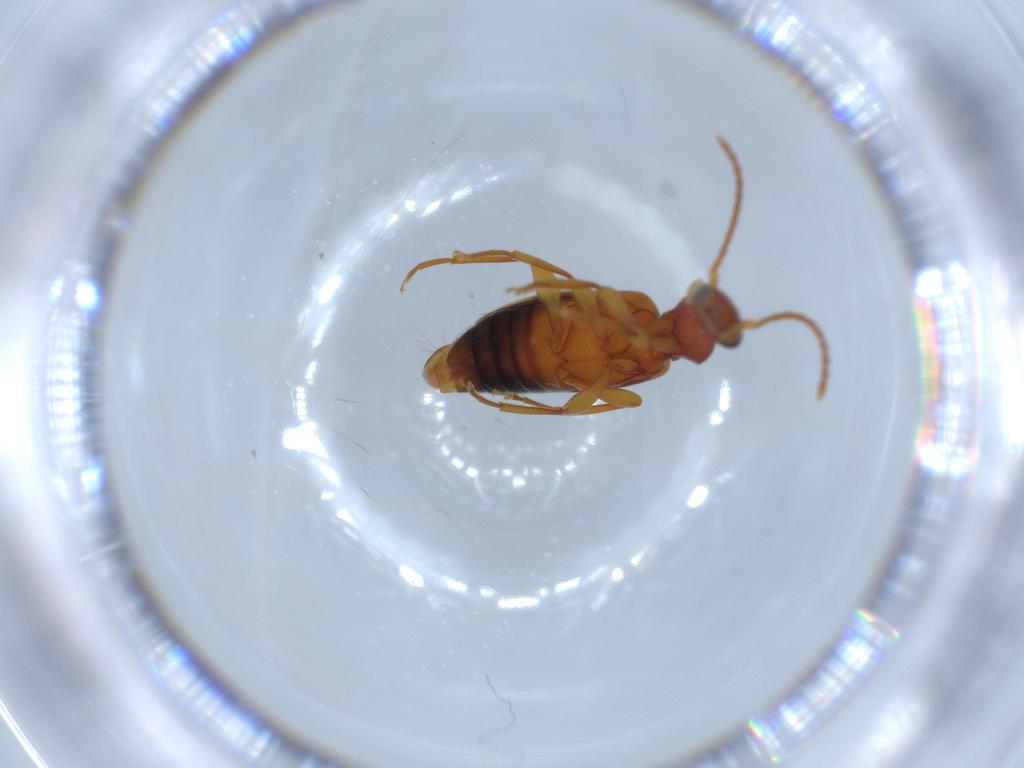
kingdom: Animalia
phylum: Arthropoda
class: Insecta
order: Coleoptera
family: Anthicidae
